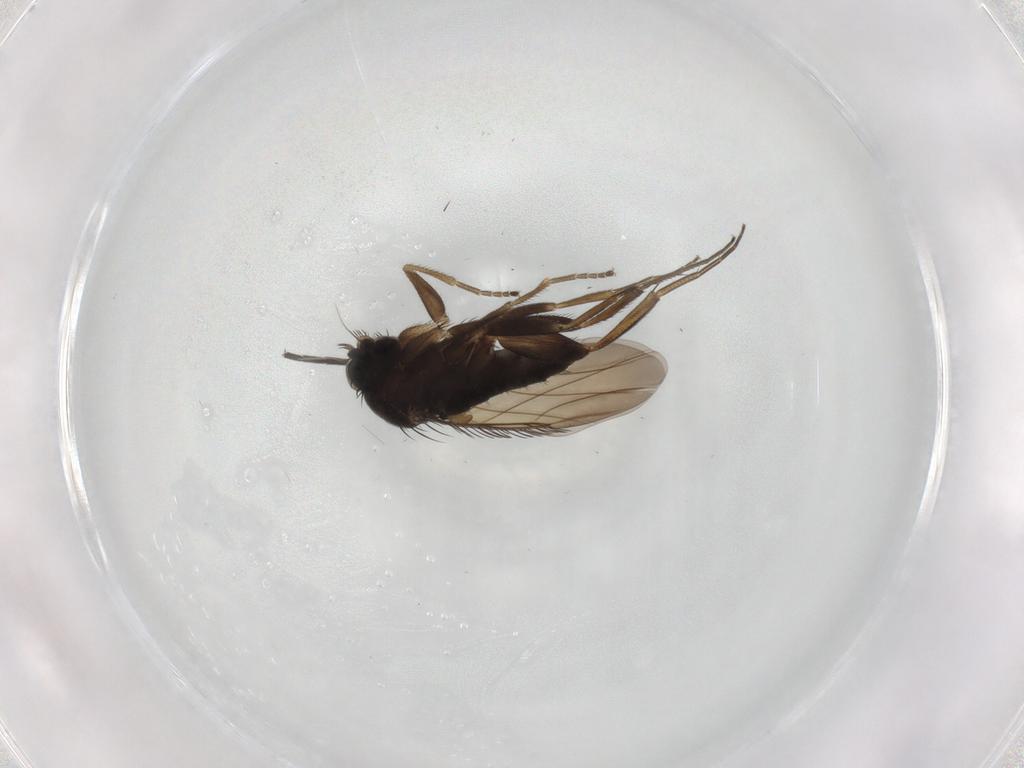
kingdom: Animalia
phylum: Arthropoda
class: Insecta
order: Diptera
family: Phoridae
